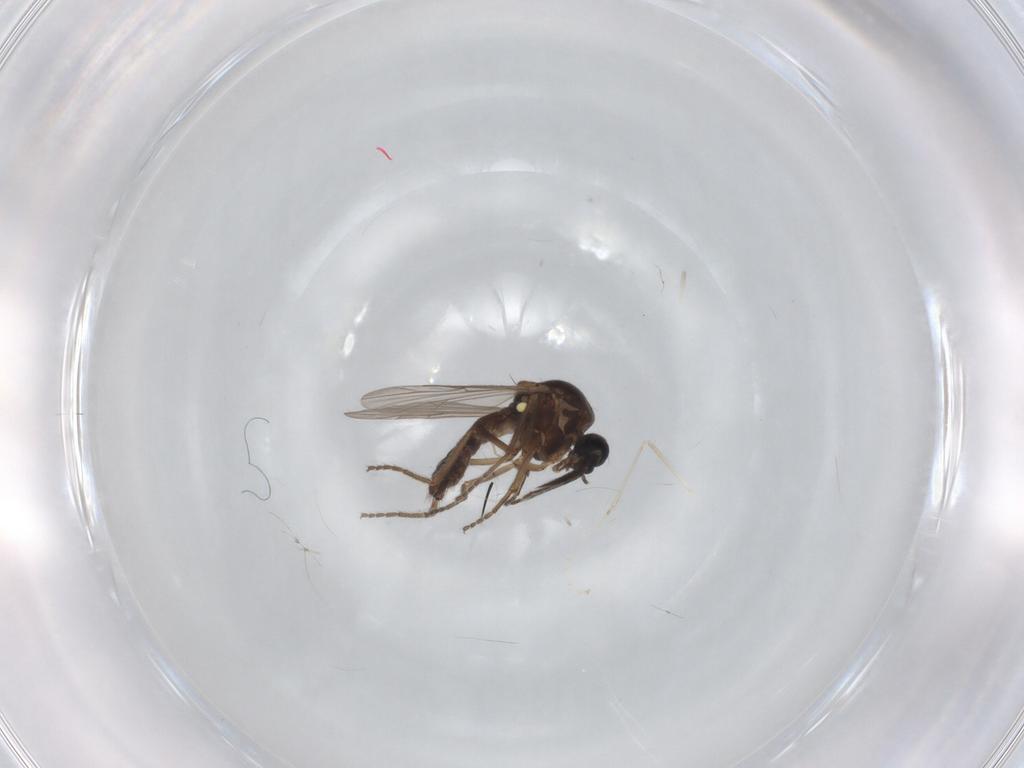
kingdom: Animalia
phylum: Arthropoda
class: Insecta
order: Diptera
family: Ceratopogonidae
